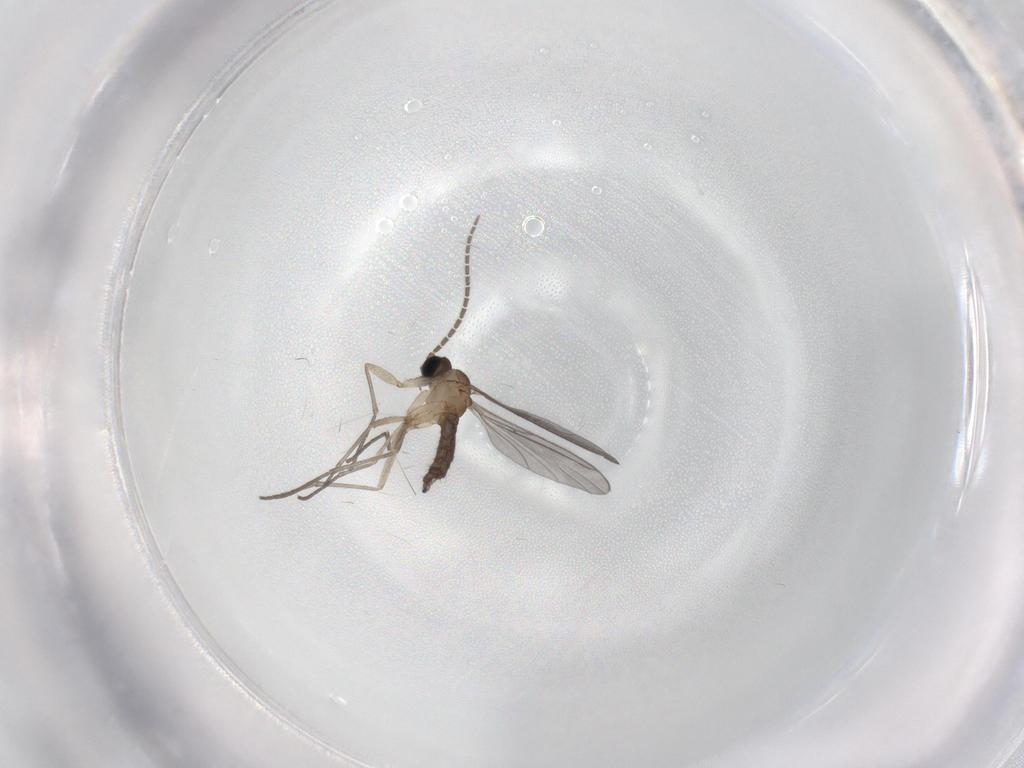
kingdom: Animalia
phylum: Arthropoda
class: Insecta
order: Diptera
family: Sciaridae
